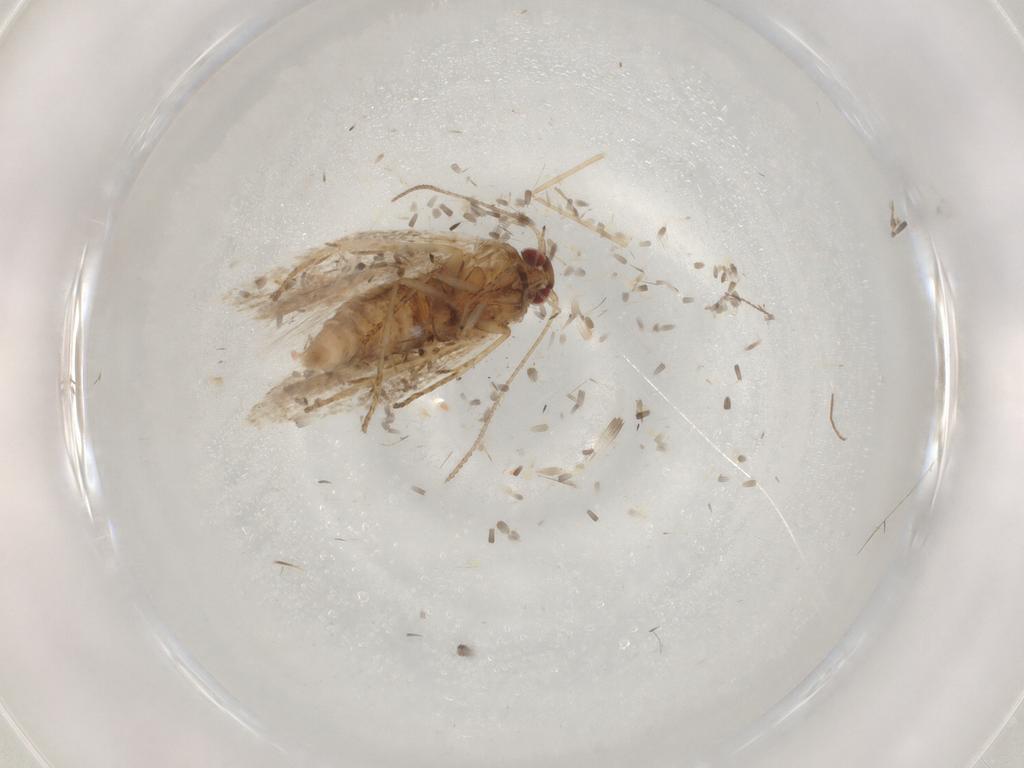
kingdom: Animalia
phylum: Arthropoda
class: Insecta
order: Lepidoptera
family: Bucculatricidae
